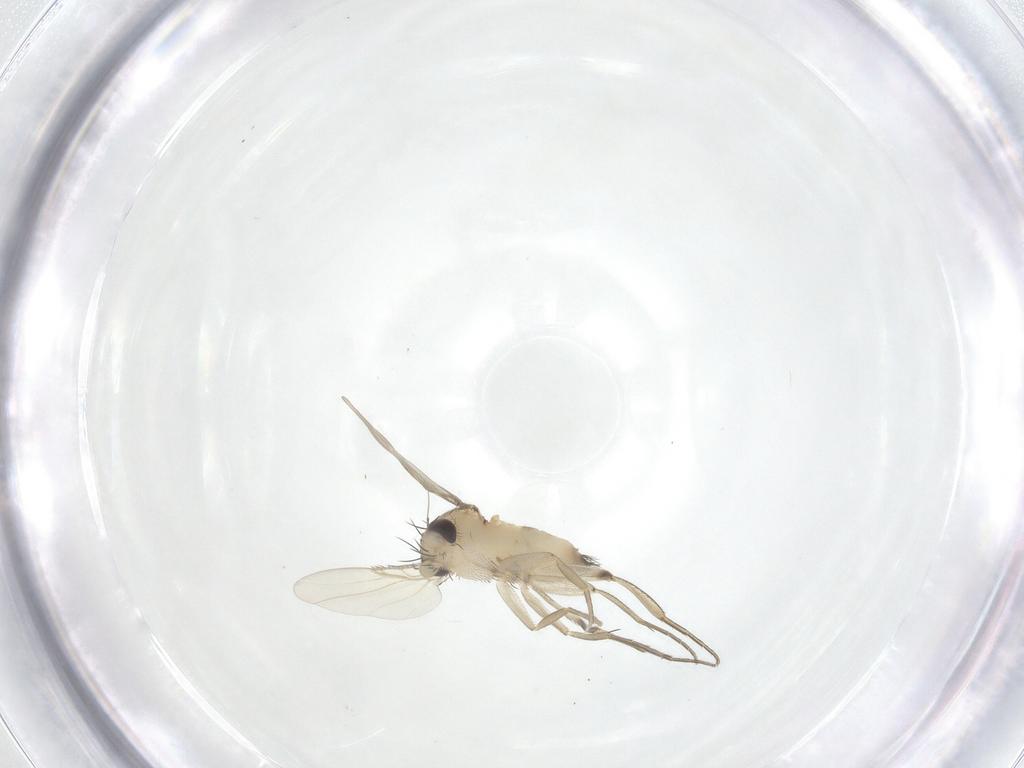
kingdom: Animalia
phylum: Arthropoda
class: Insecta
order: Diptera
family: Phoridae
